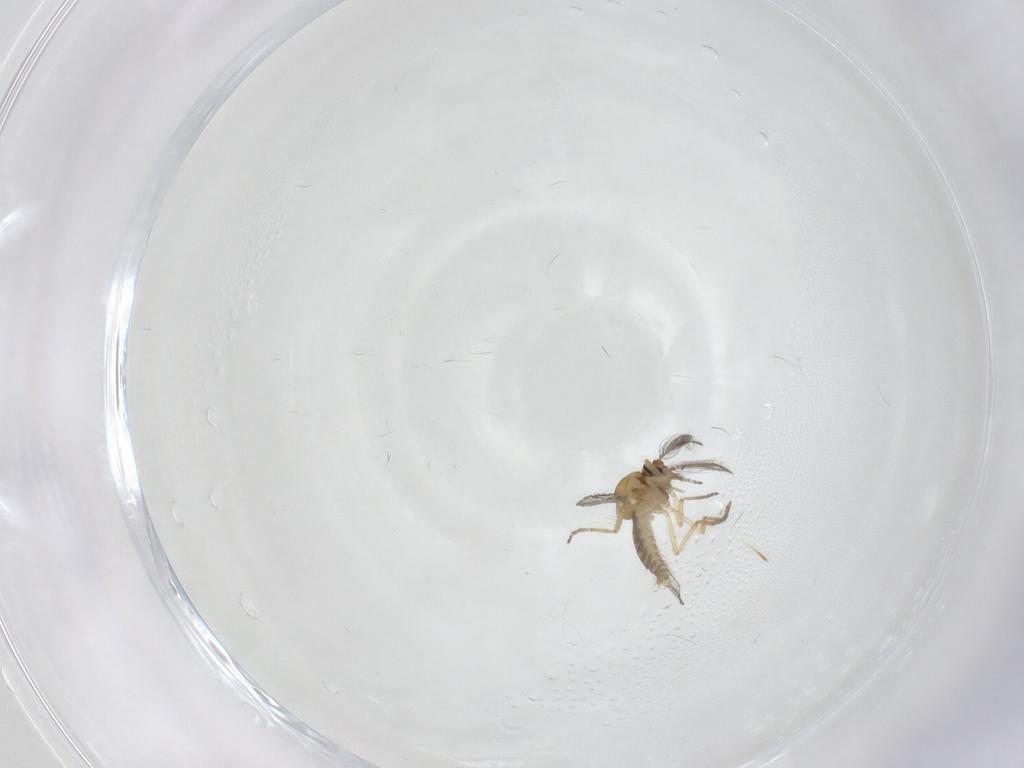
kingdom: Animalia
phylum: Arthropoda
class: Insecta
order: Diptera
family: Ceratopogonidae
